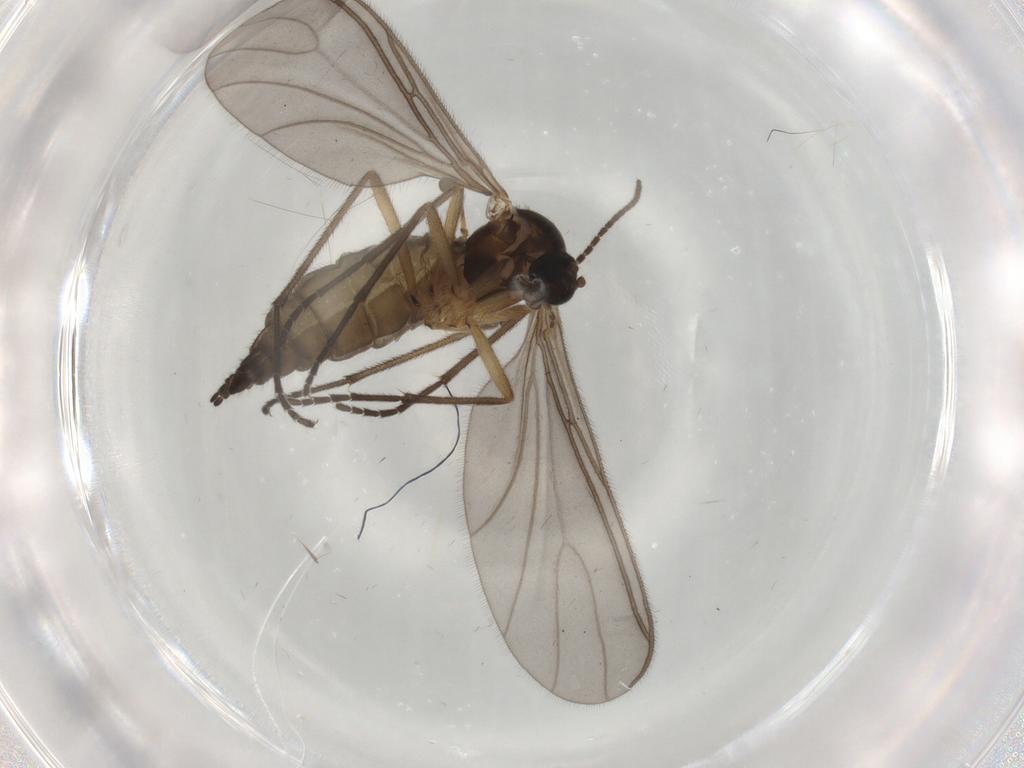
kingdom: Animalia
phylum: Arthropoda
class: Insecta
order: Diptera
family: Sciaridae
